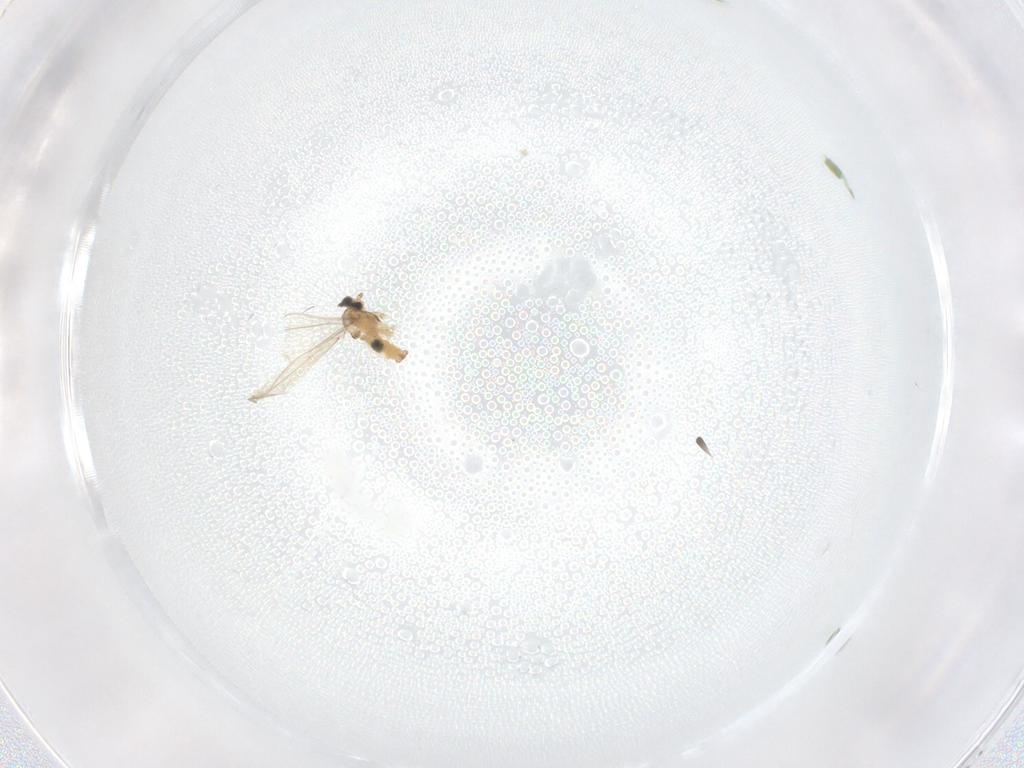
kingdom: Animalia
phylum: Arthropoda
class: Insecta
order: Diptera
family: Cecidomyiidae
